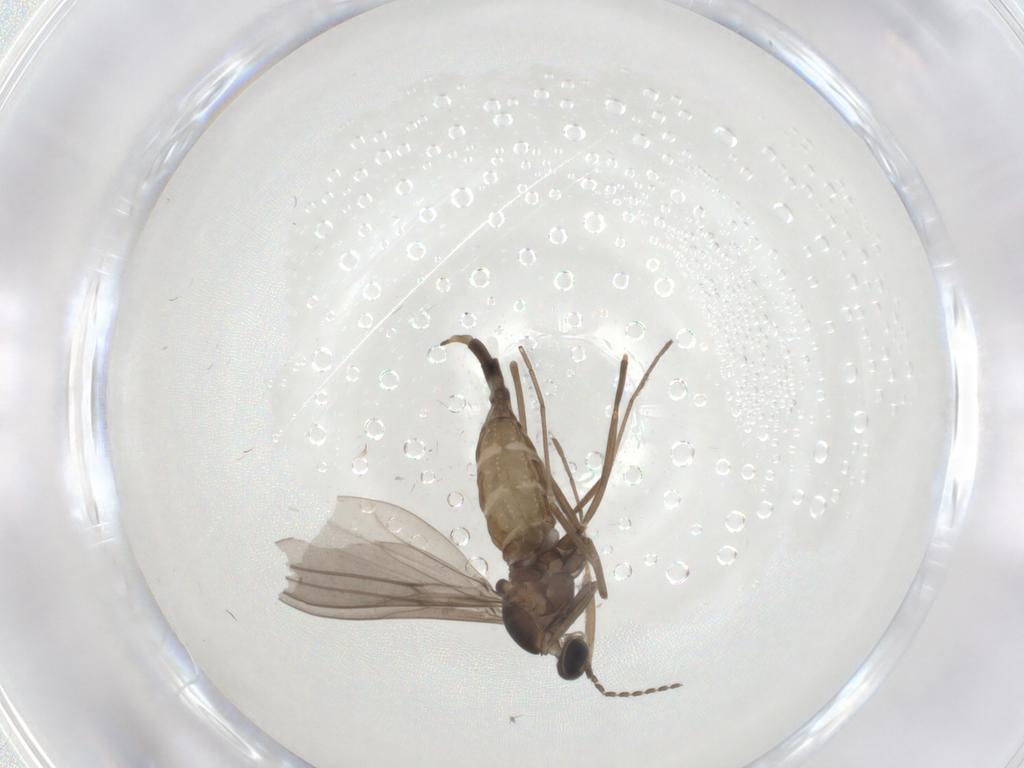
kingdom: Animalia
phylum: Arthropoda
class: Insecta
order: Diptera
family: Cecidomyiidae
